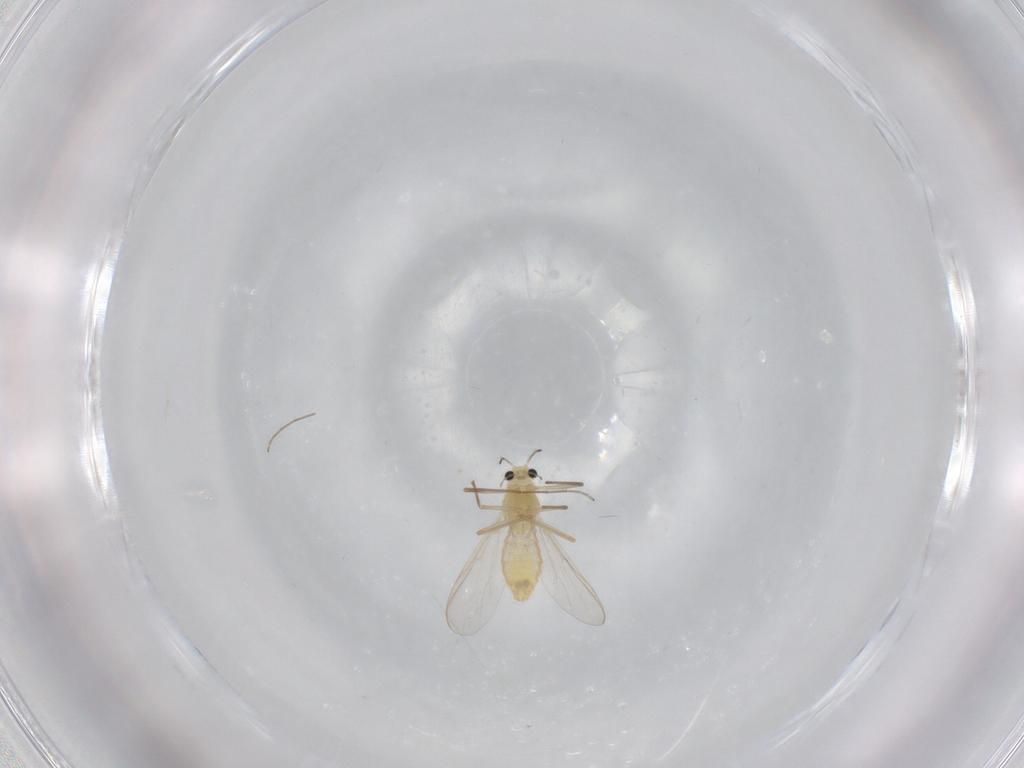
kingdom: Animalia
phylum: Arthropoda
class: Insecta
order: Diptera
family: Chironomidae
